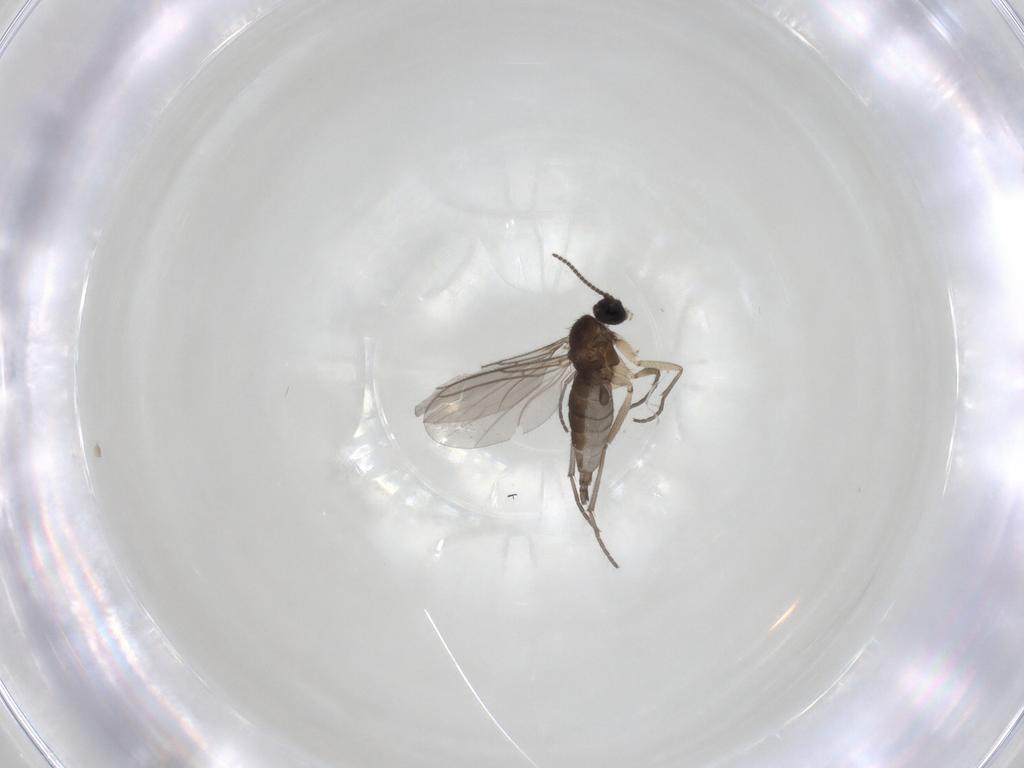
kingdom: Animalia
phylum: Arthropoda
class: Insecta
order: Diptera
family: Sciaridae
